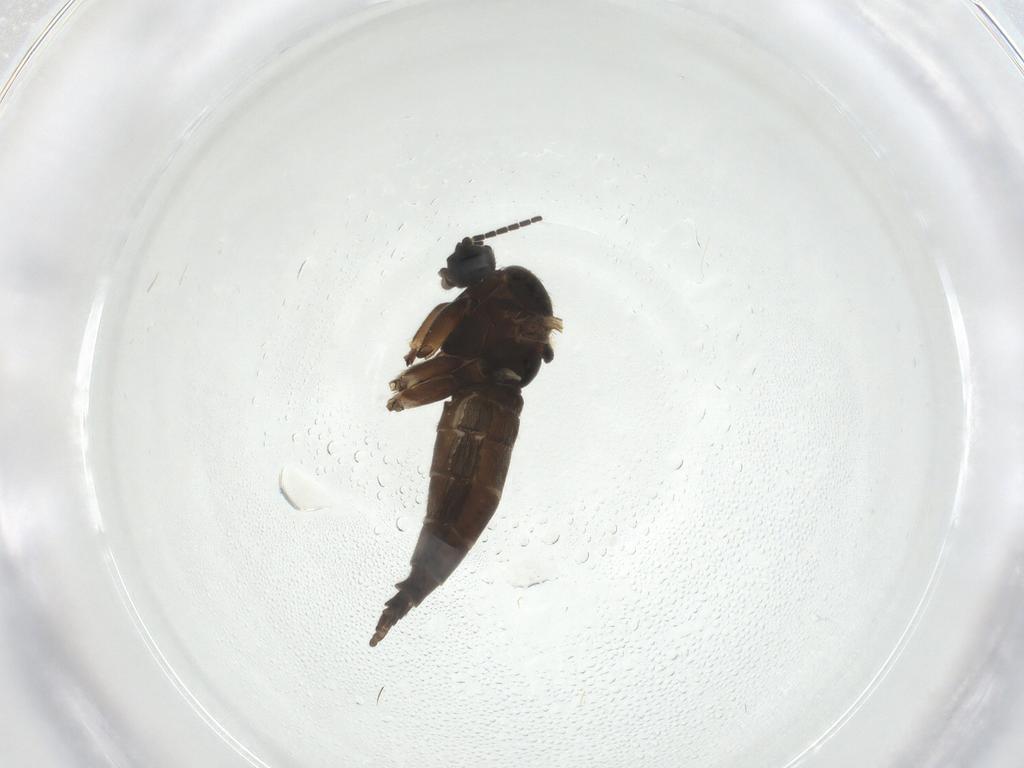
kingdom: Animalia
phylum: Arthropoda
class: Insecta
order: Diptera
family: Sciaridae
